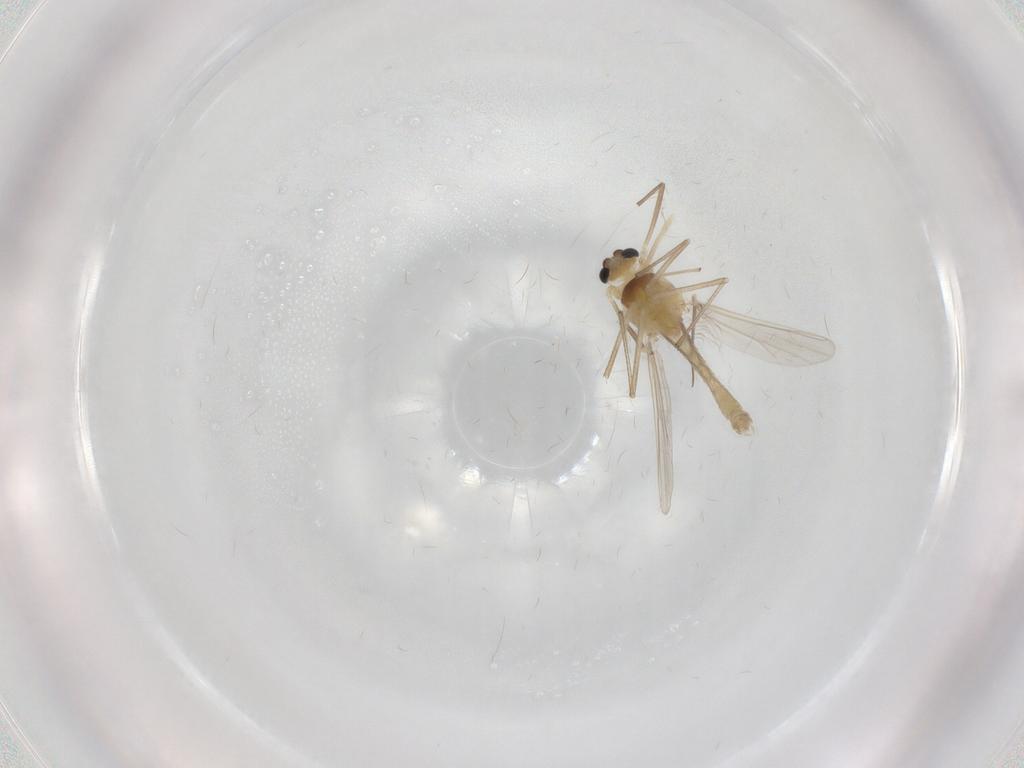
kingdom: Animalia
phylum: Arthropoda
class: Insecta
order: Diptera
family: Chironomidae
